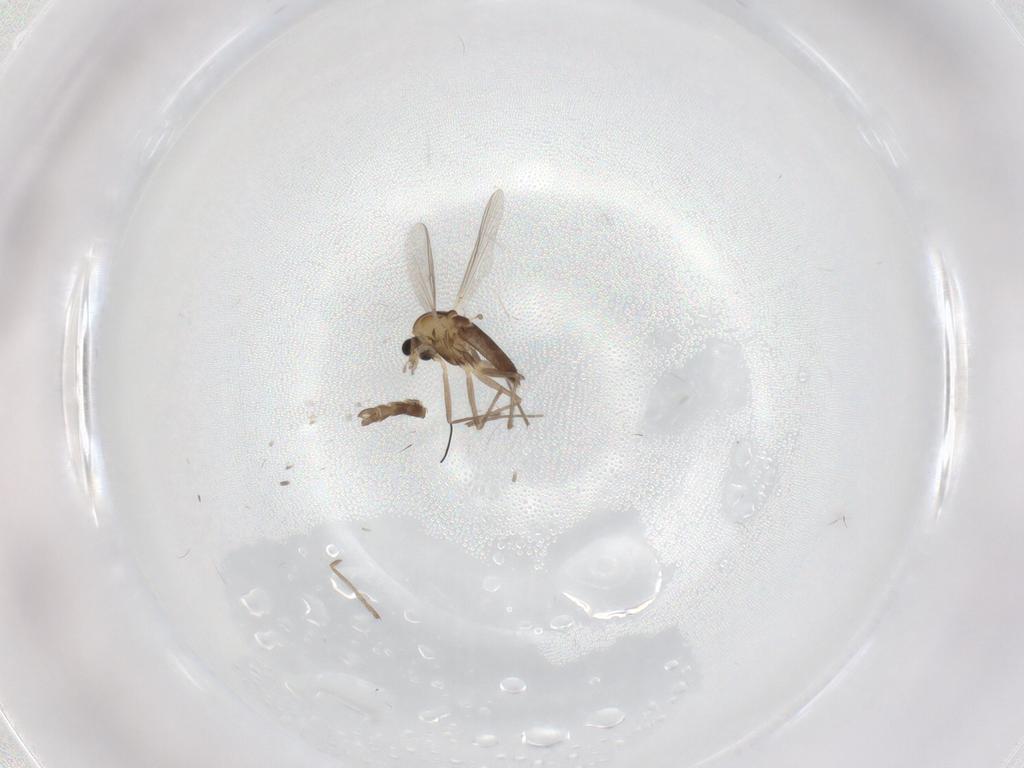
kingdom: Animalia
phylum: Arthropoda
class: Insecta
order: Diptera
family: Chironomidae
